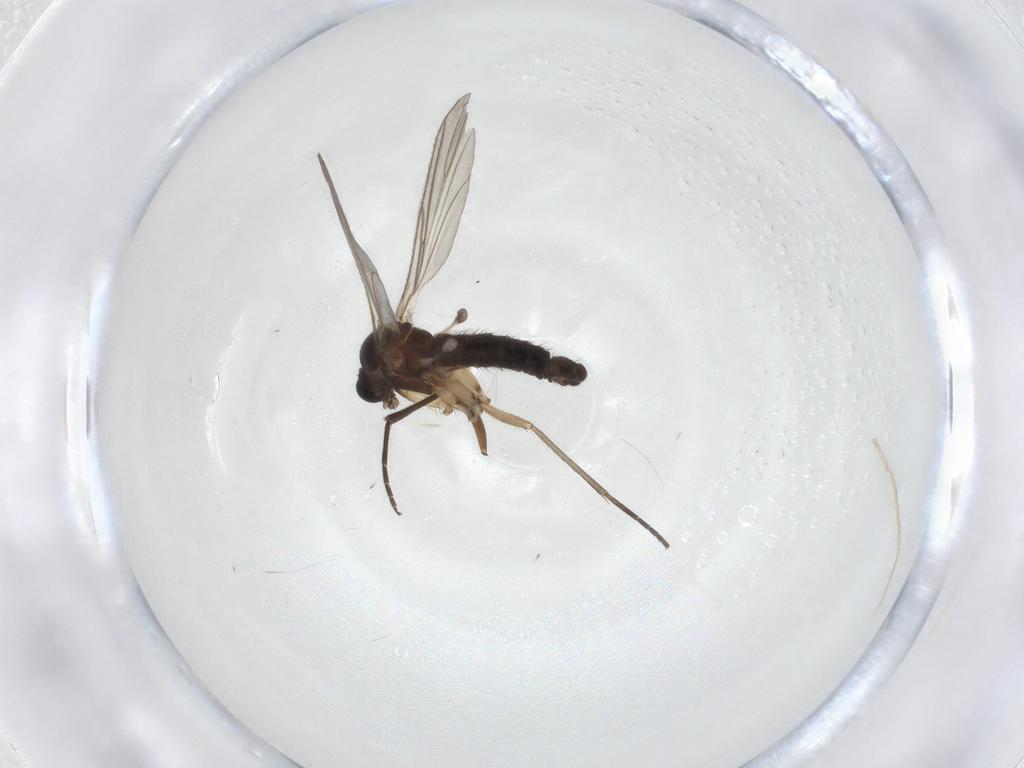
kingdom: Animalia
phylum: Arthropoda
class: Insecta
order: Diptera
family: Sciaridae
